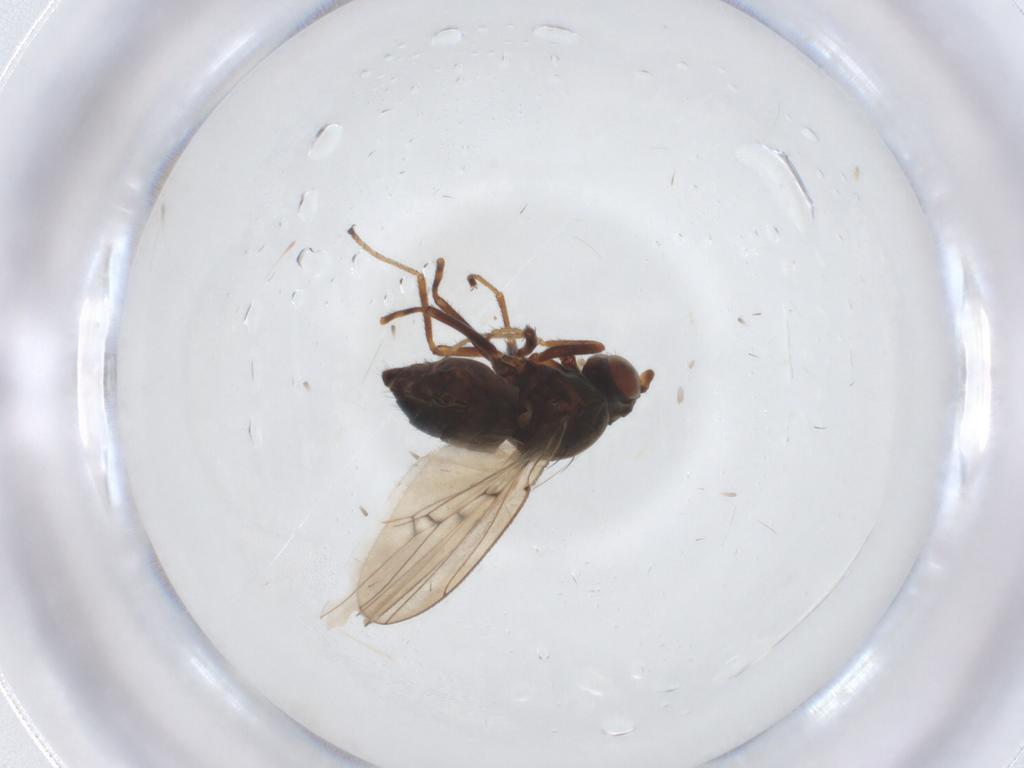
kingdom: Animalia
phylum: Arthropoda
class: Insecta
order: Diptera
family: Ephydridae
